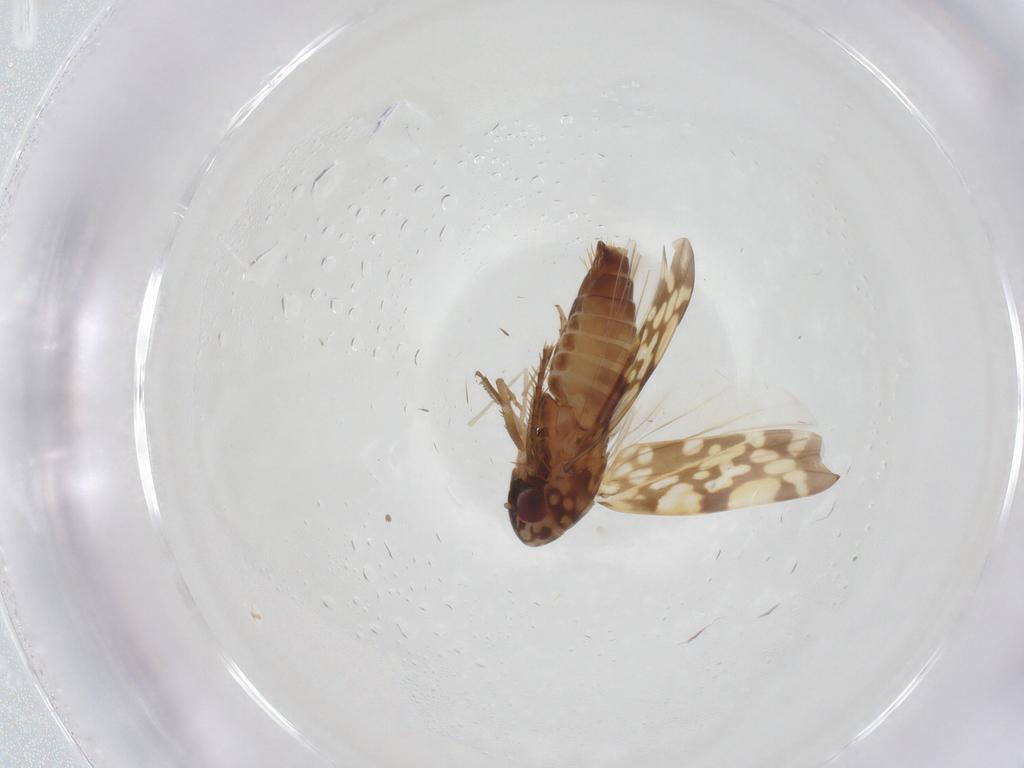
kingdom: Animalia
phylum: Arthropoda
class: Insecta
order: Hemiptera
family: Cicadellidae
